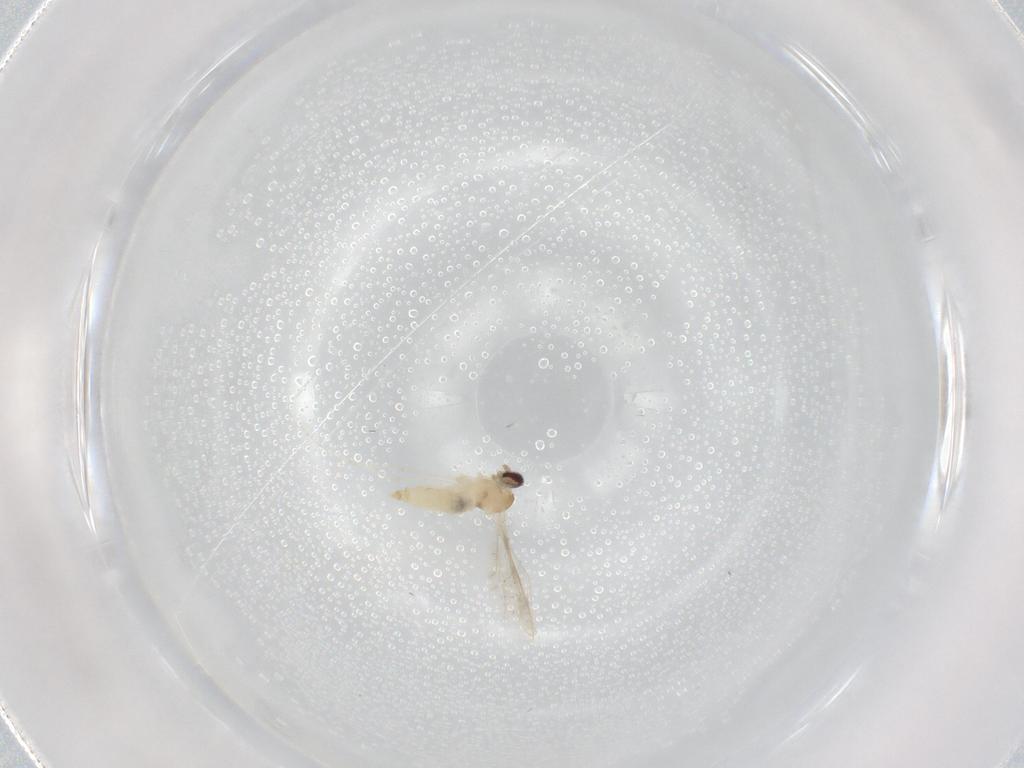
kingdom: Animalia
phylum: Arthropoda
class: Insecta
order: Diptera
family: Cecidomyiidae
